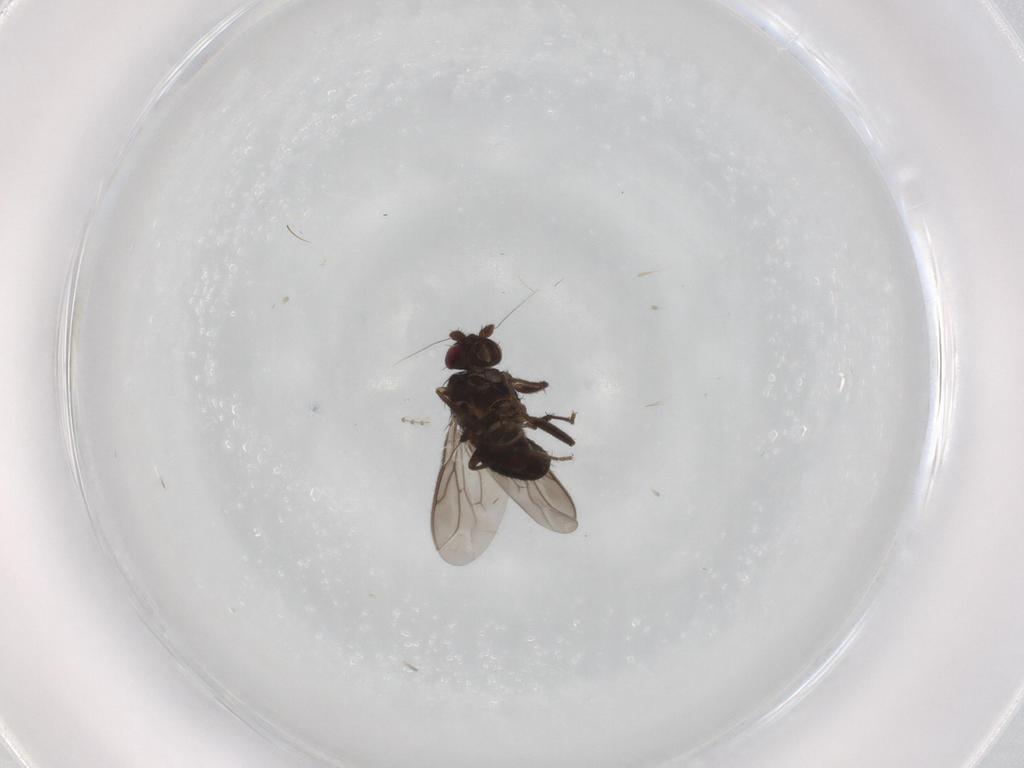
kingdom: Animalia
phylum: Arthropoda
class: Insecta
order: Diptera
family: Sphaeroceridae
